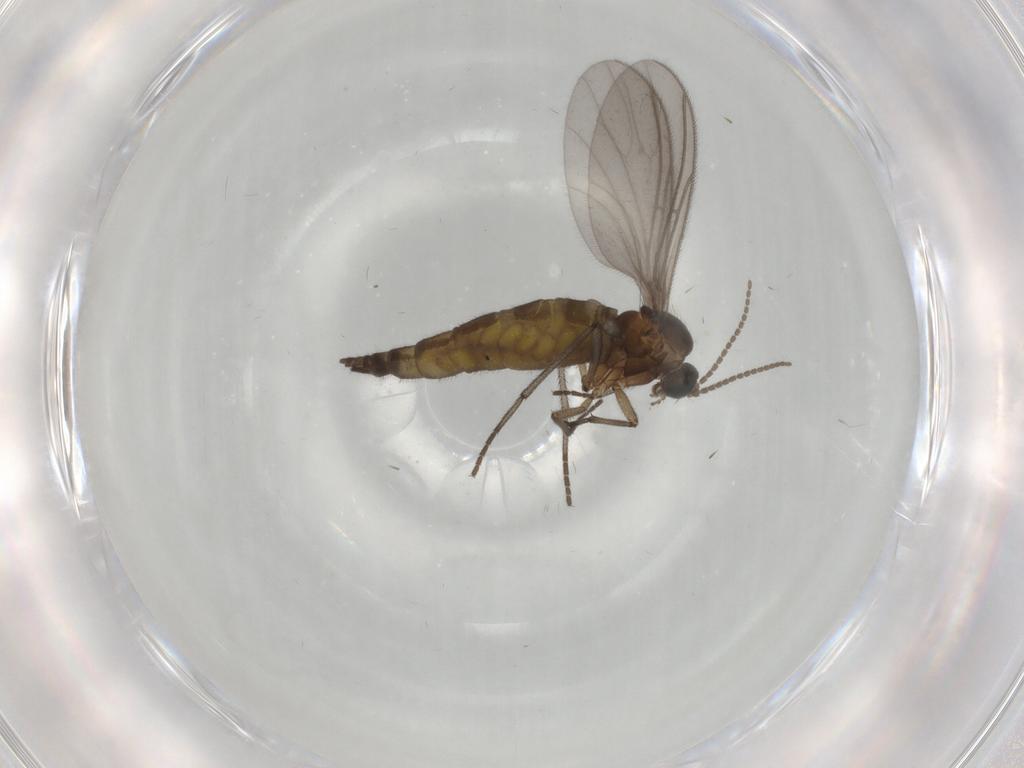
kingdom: Animalia
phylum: Arthropoda
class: Insecta
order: Diptera
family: Sciaridae
